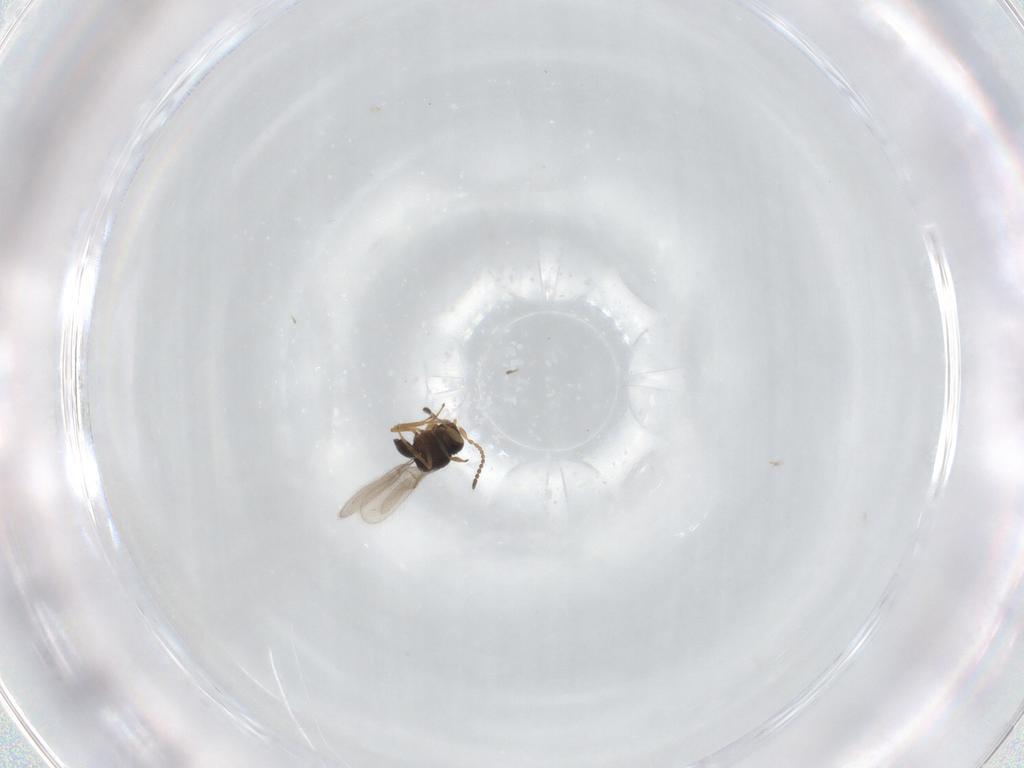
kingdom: Animalia
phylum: Arthropoda
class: Insecta
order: Hymenoptera
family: Scelionidae
